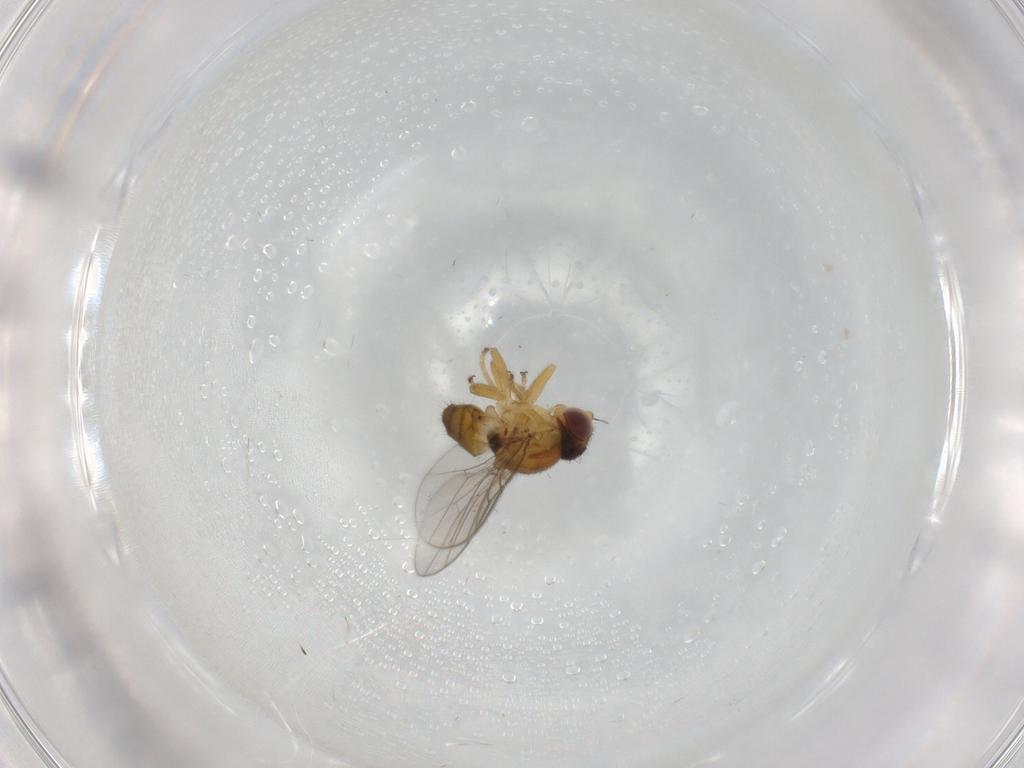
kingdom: Animalia
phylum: Arthropoda
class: Insecta
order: Diptera
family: Chloropidae
